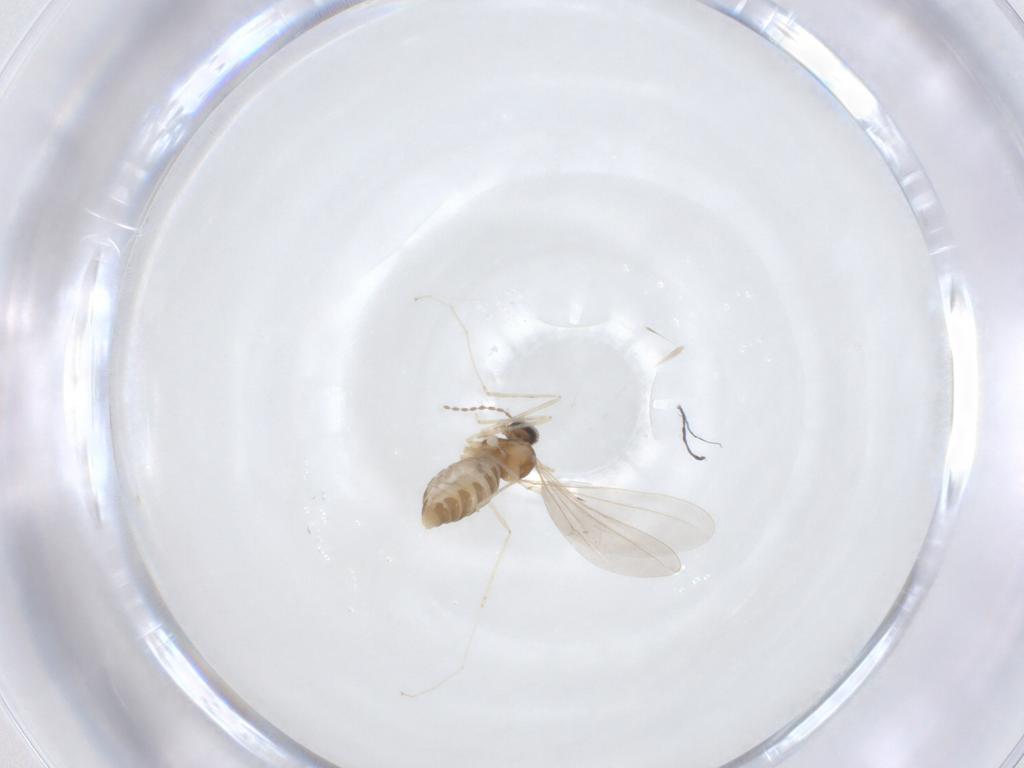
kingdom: Animalia
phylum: Arthropoda
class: Insecta
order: Diptera
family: Cecidomyiidae
